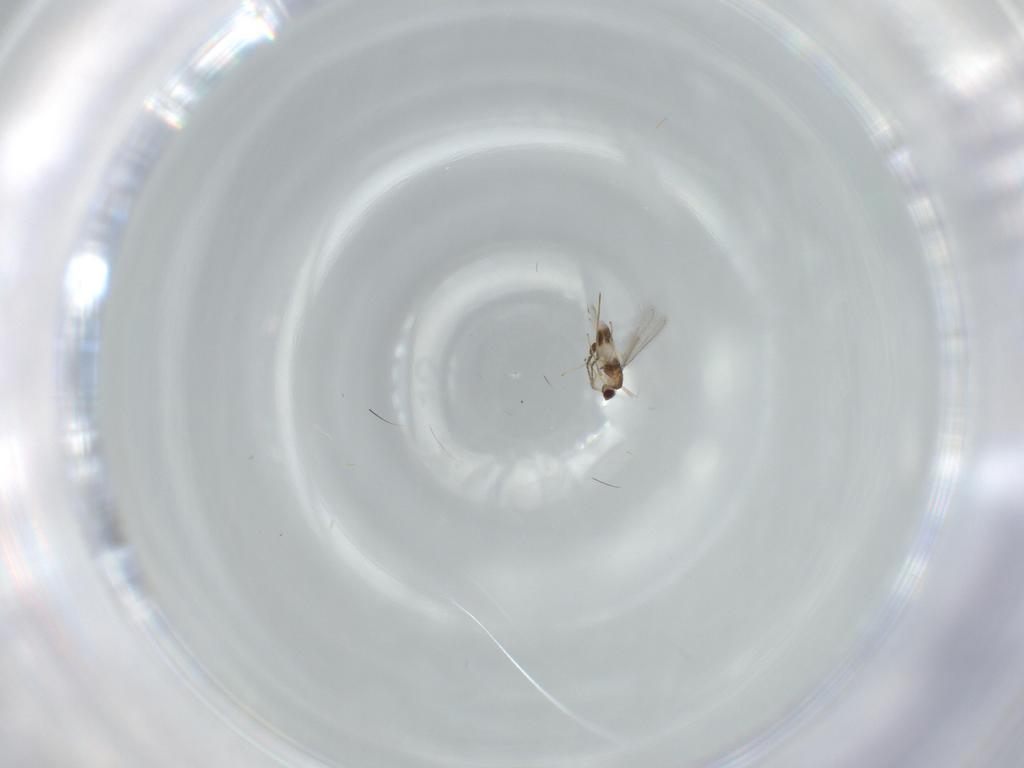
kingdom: Animalia
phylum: Arthropoda
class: Insecta
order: Hymenoptera
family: Mymaridae
